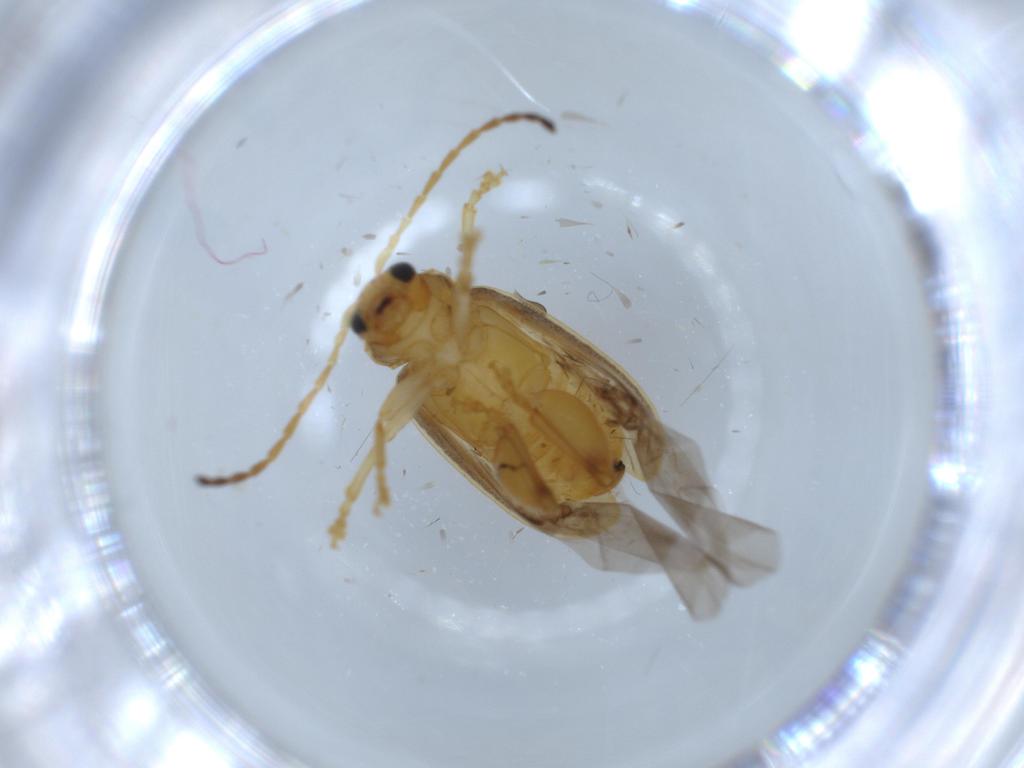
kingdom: Animalia
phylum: Arthropoda
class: Insecta
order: Coleoptera
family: Chrysomelidae
